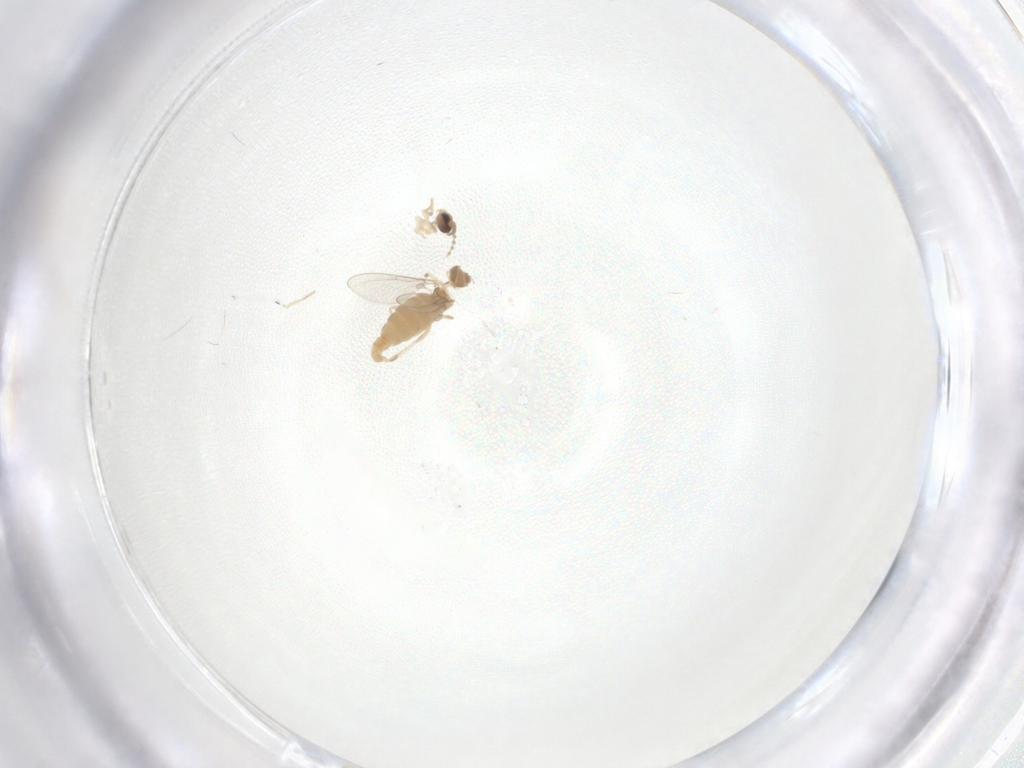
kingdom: Animalia
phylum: Arthropoda
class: Insecta
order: Diptera
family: Cecidomyiidae
